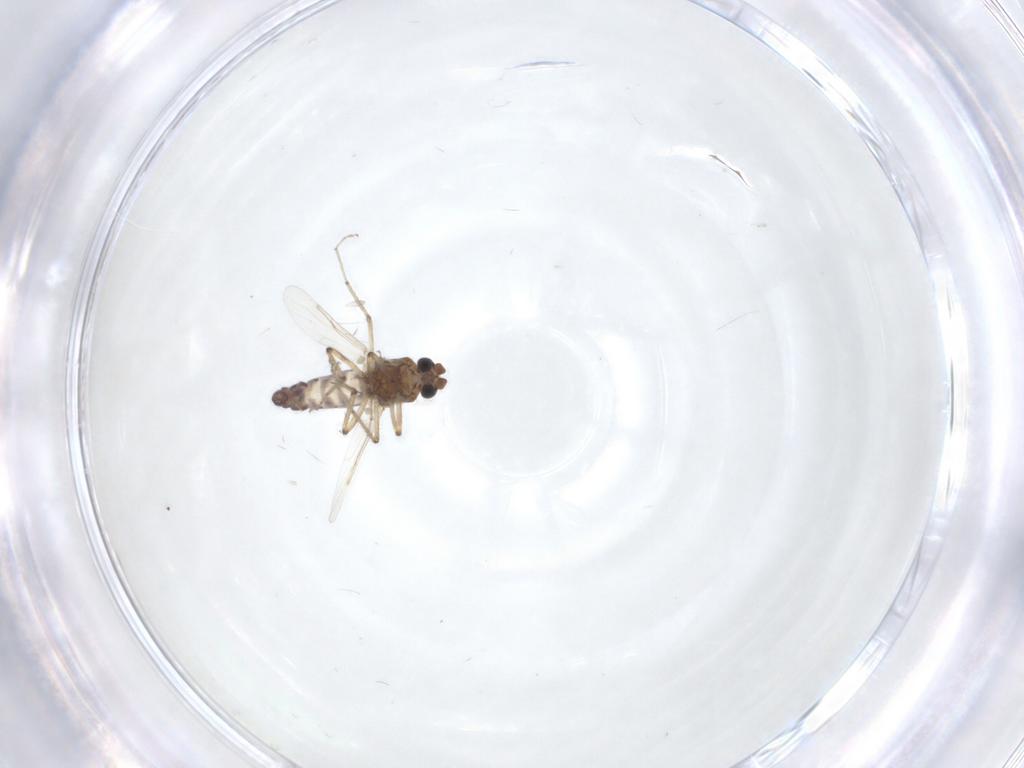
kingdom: Animalia
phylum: Arthropoda
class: Insecta
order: Diptera
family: Ceratopogonidae
